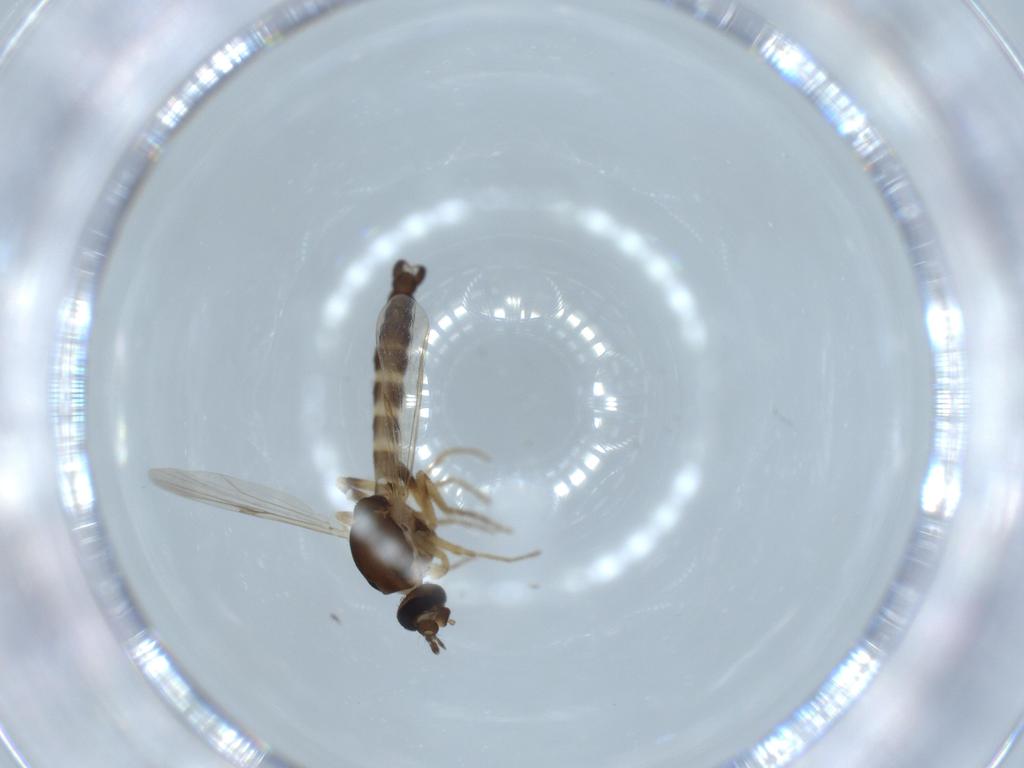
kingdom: Animalia
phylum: Arthropoda
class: Insecta
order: Diptera
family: Ceratopogonidae
